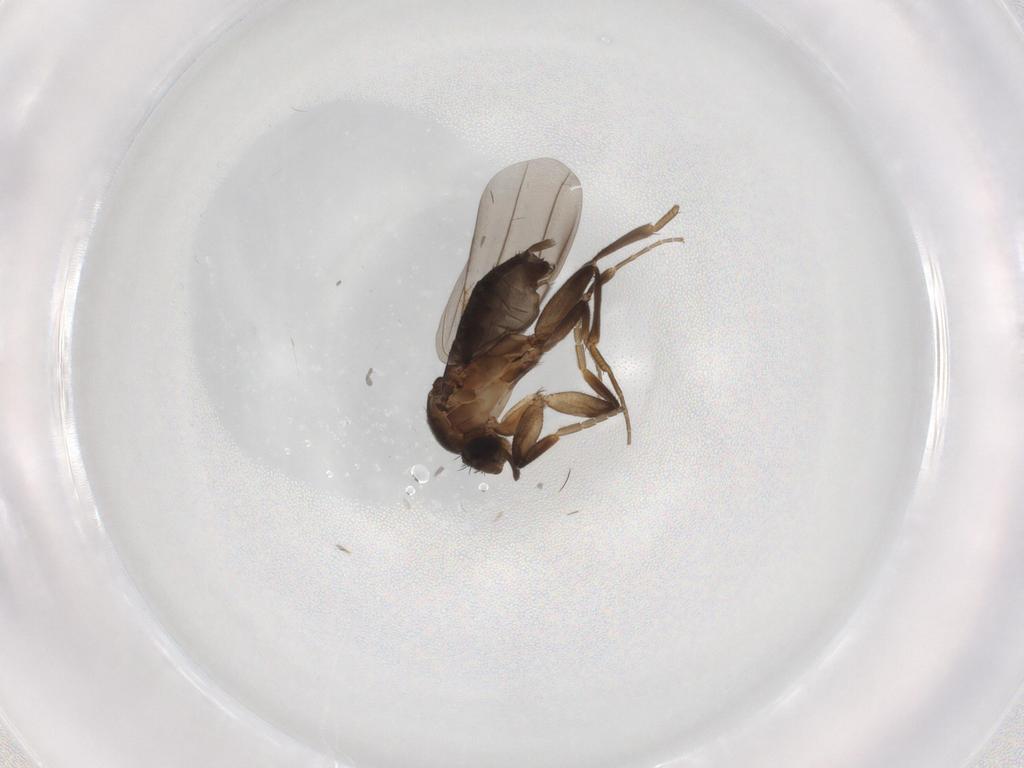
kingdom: Animalia
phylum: Arthropoda
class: Insecta
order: Diptera
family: Phoridae
